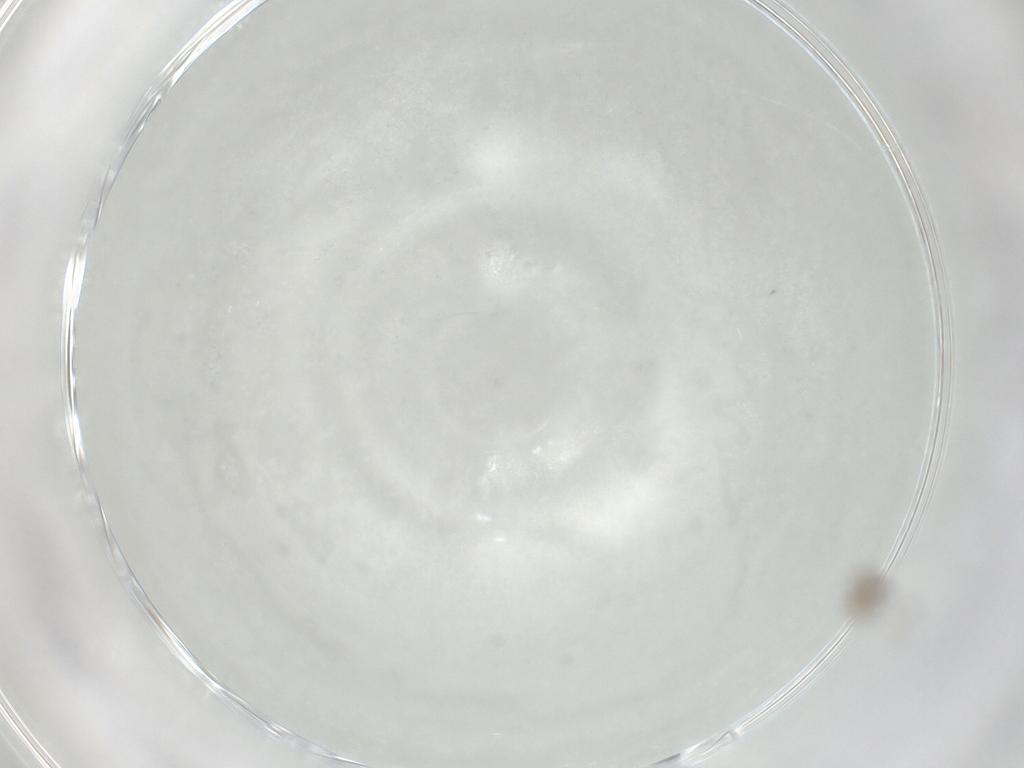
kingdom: Animalia
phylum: Arthropoda
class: Insecta
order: Hemiptera
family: Aphididae
